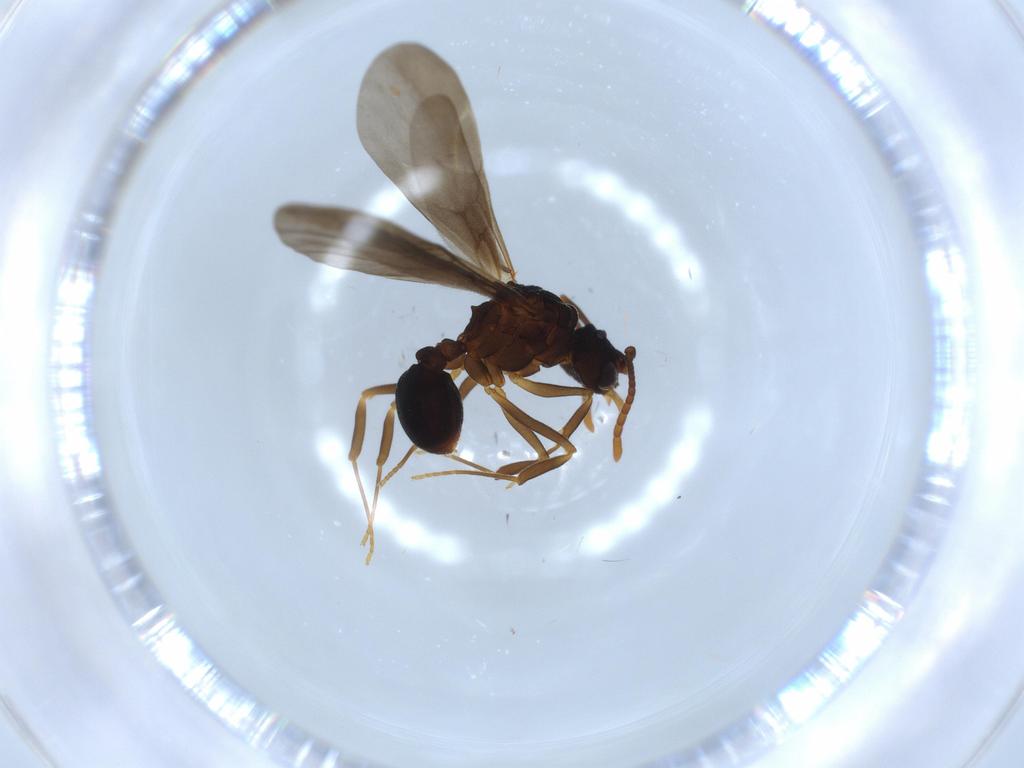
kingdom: Animalia
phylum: Arthropoda
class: Insecta
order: Hymenoptera
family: Formicidae
